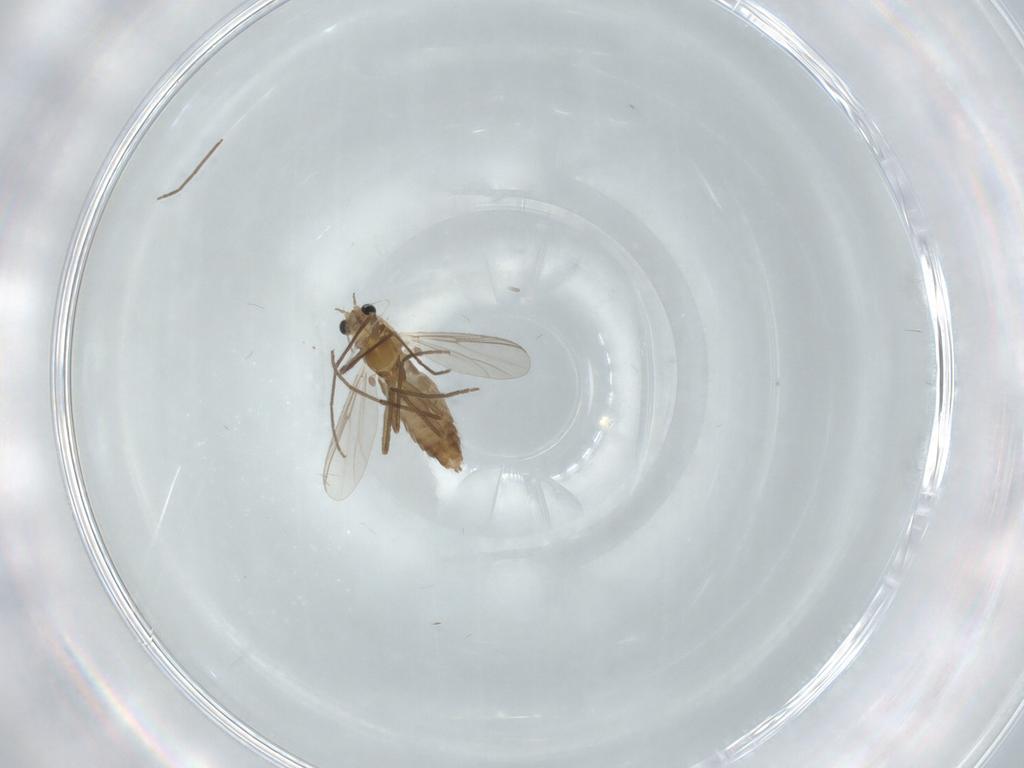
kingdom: Animalia
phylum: Arthropoda
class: Insecta
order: Diptera
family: Chironomidae
